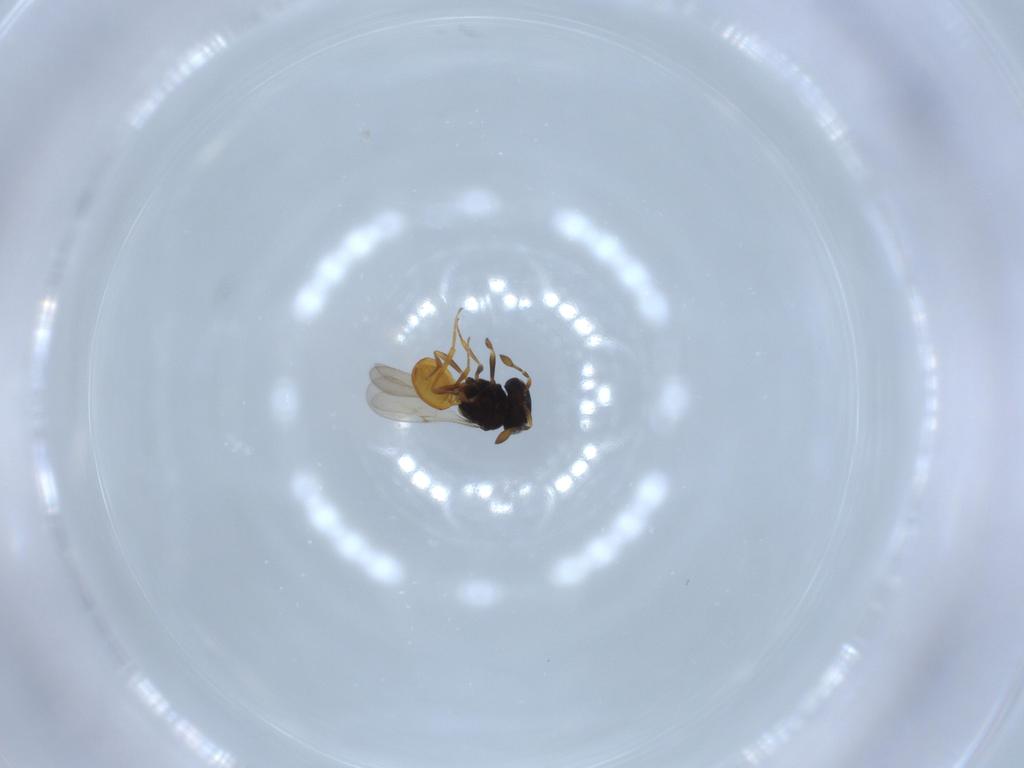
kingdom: Animalia
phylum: Arthropoda
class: Insecta
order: Hymenoptera
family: Scelionidae
